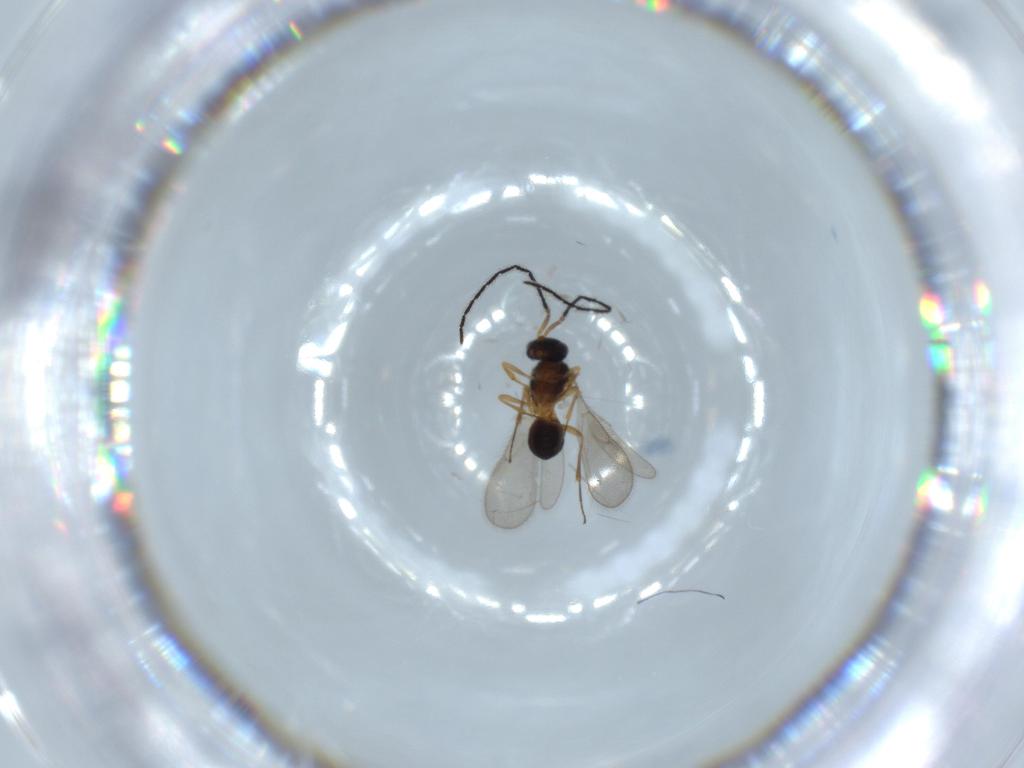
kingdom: Animalia
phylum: Arthropoda
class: Insecta
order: Hymenoptera
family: Scelionidae
